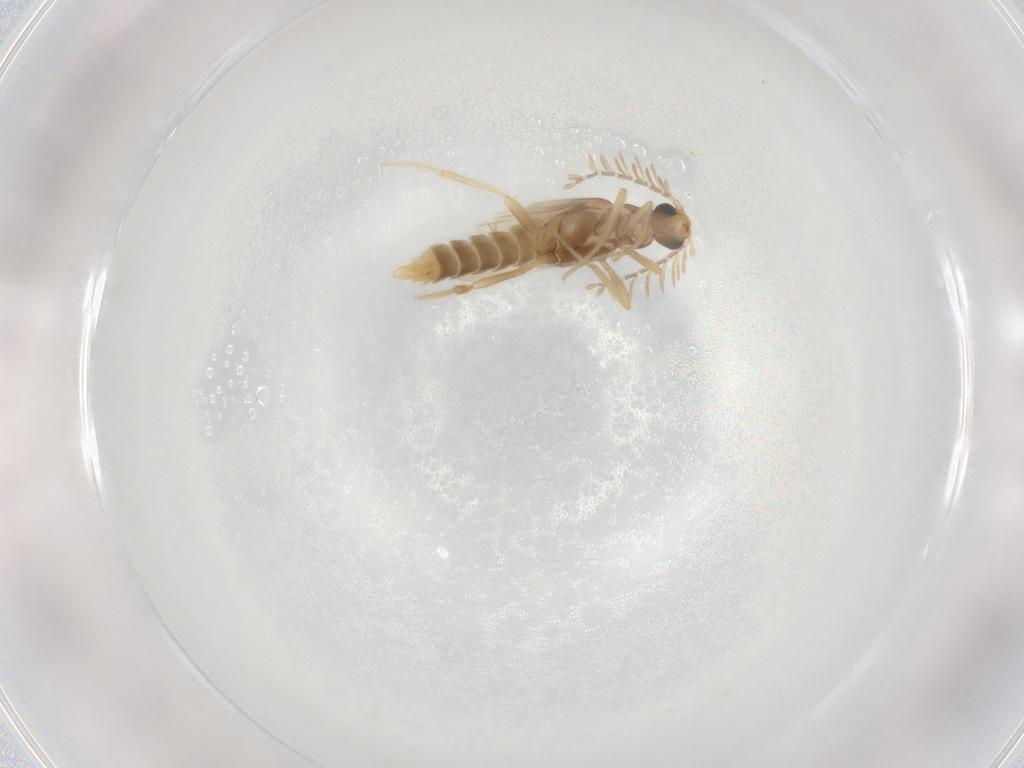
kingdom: Animalia
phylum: Arthropoda
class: Insecta
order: Coleoptera
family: Phengodidae
